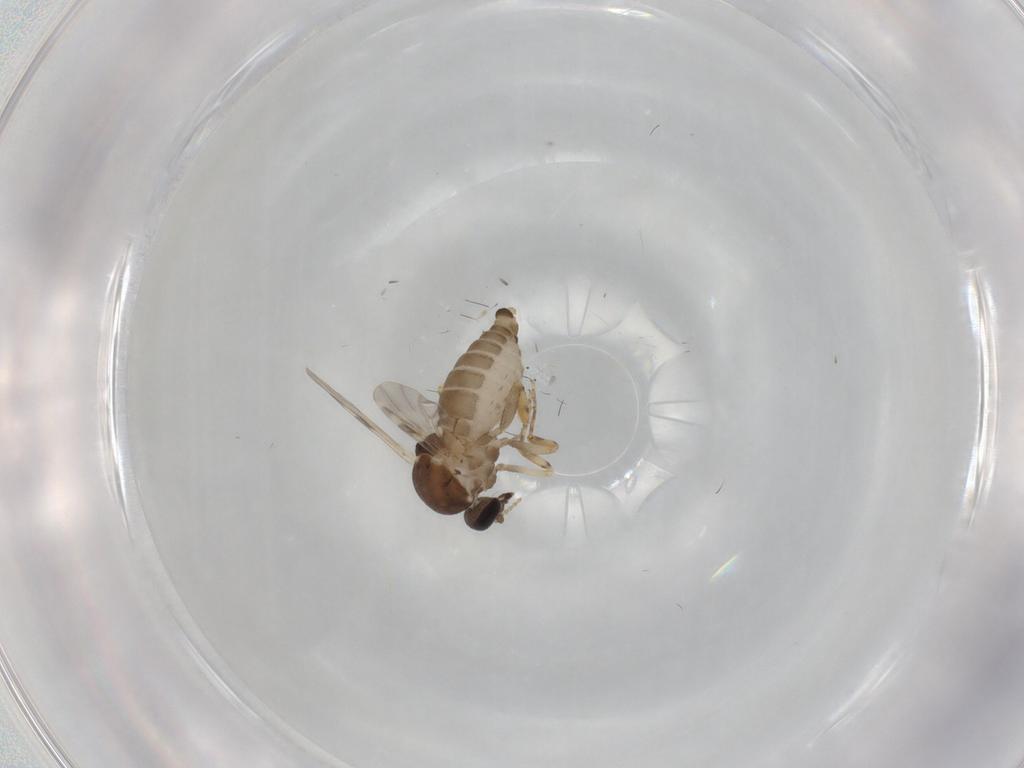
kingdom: Animalia
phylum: Arthropoda
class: Insecta
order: Diptera
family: Ceratopogonidae
